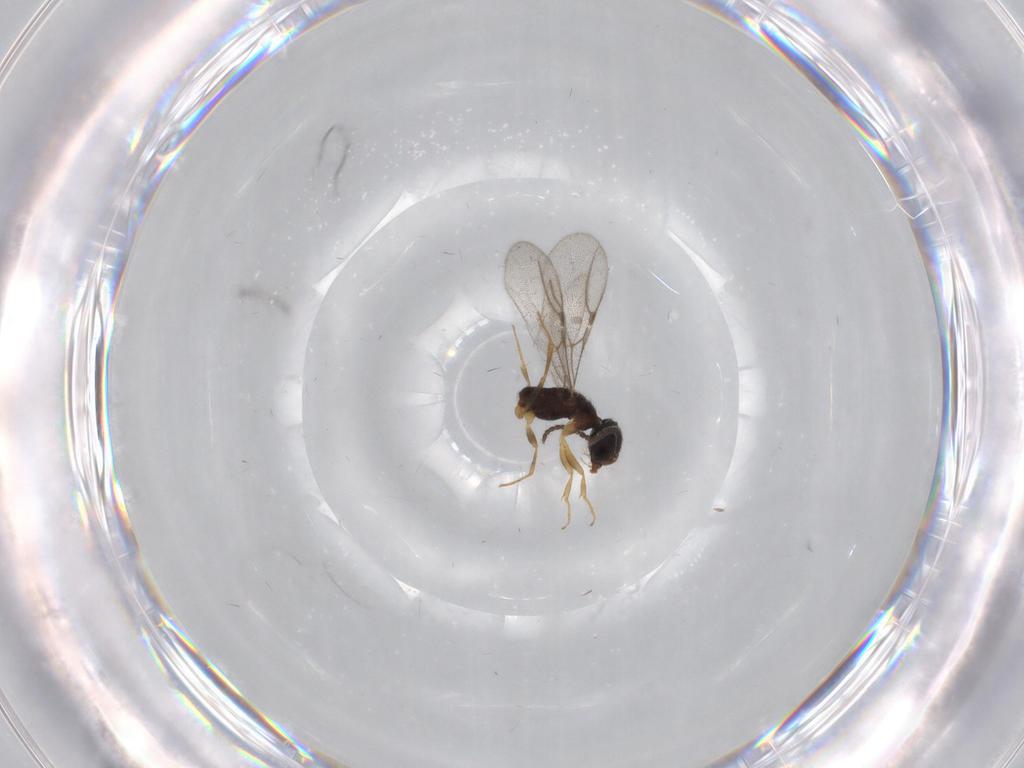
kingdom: Animalia
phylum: Arthropoda
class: Insecta
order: Hymenoptera
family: Bethylidae
